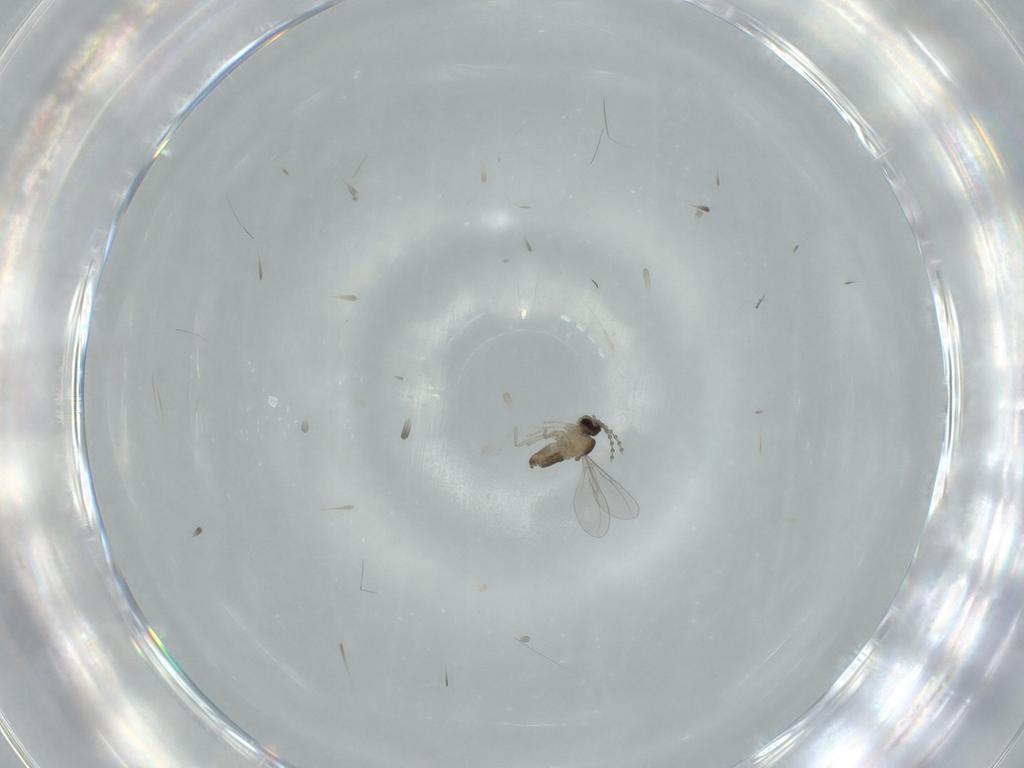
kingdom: Animalia
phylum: Arthropoda
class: Insecta
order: Diptera
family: Cecidomyiidae
